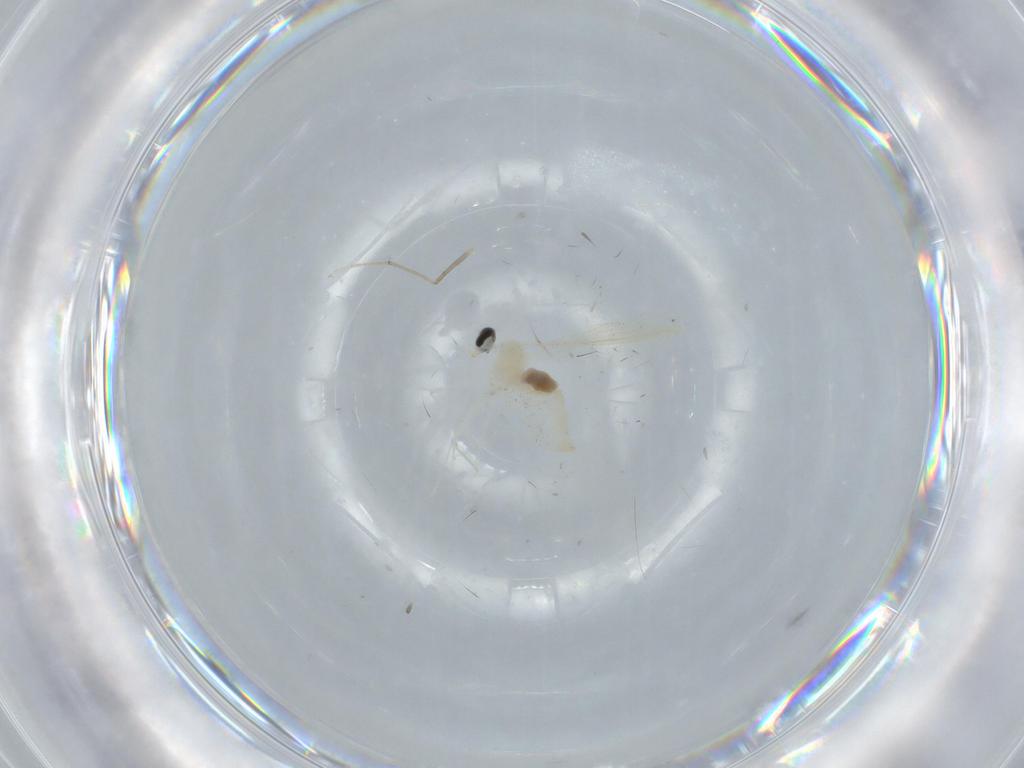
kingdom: Animalia
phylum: Arthropoda
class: Insecta
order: Diptera
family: Chironomidae
